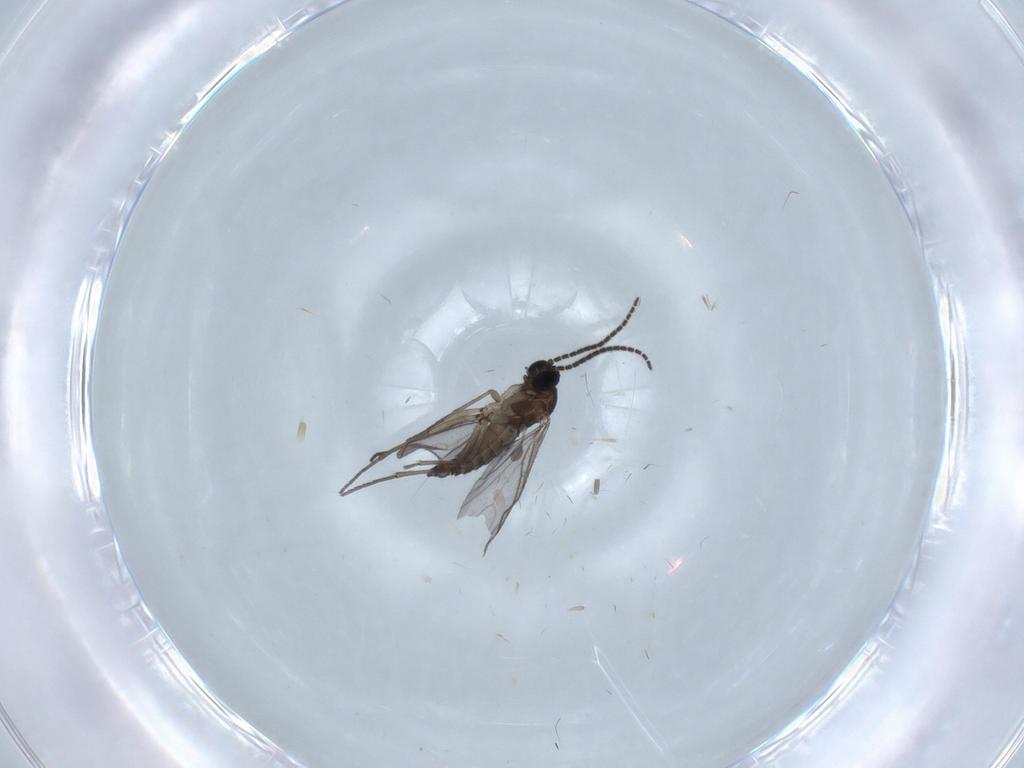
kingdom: Animalia
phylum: Arthropoda
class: Insecta
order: Diptera
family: Sciaridae
